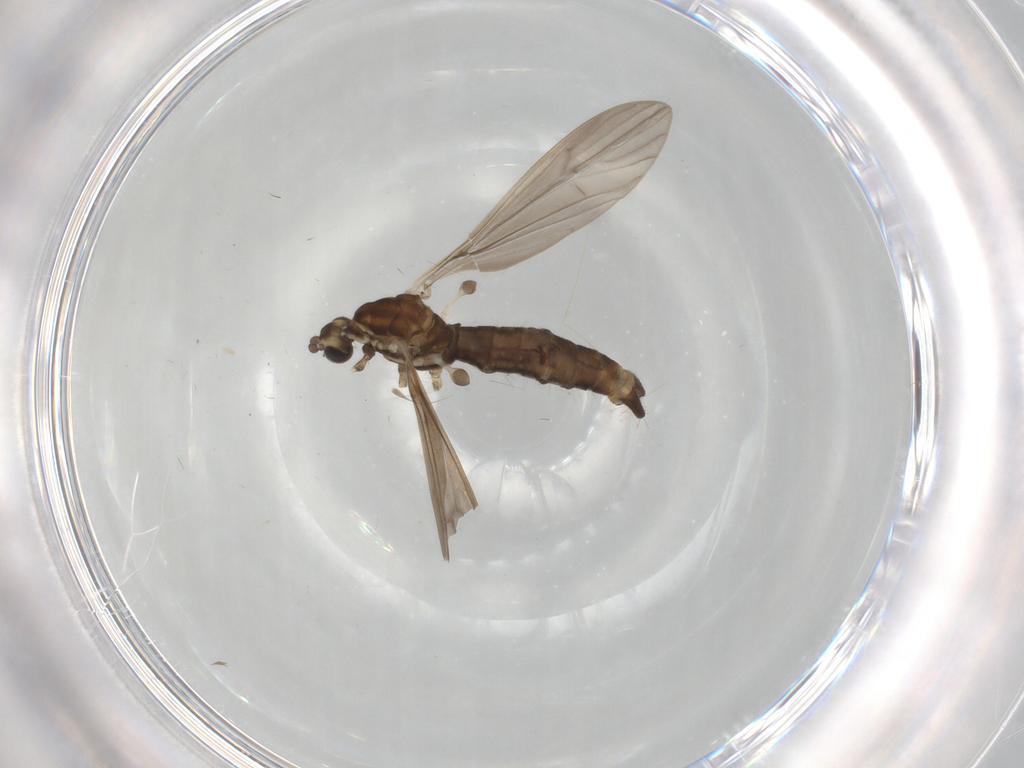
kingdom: Animalia
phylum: Arthropoda
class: Insecta
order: Diptera
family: Limoniidae
